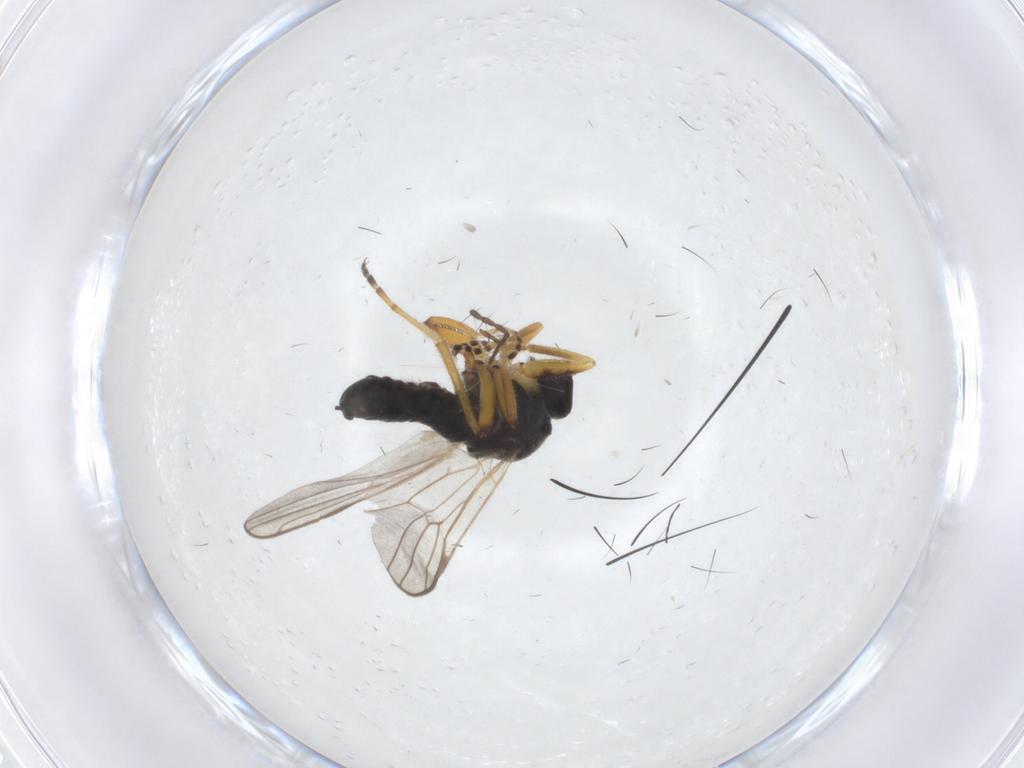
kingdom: Animalia
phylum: Arthropoda
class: Insecta
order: Diptera
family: Hybotidae
